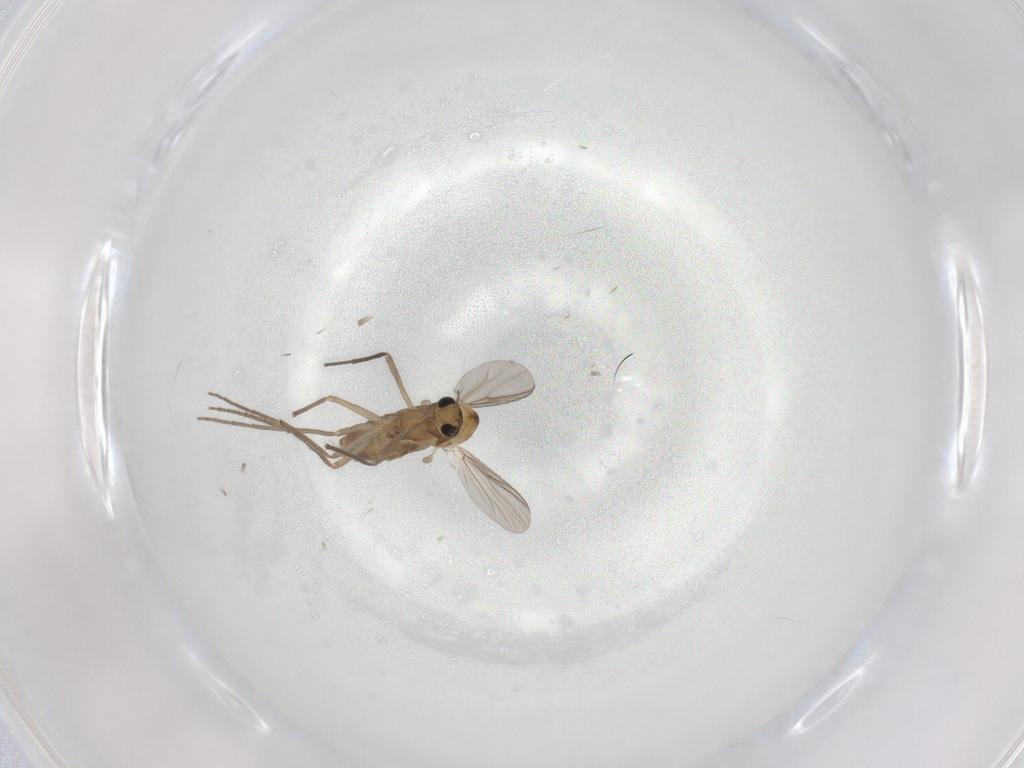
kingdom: Animalia
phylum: Arthropoda
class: Insecta
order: Diptera
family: Chironomidae
